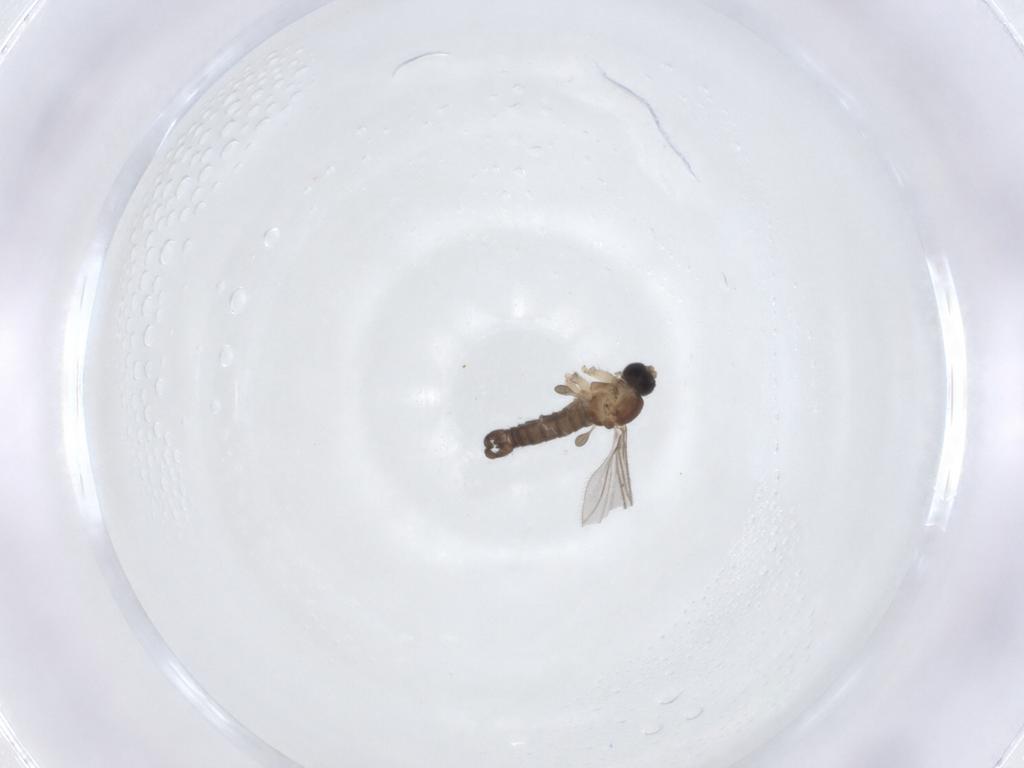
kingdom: Animalia
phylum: Arthropoda
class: Insecta
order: Diptera
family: Sciaridae
